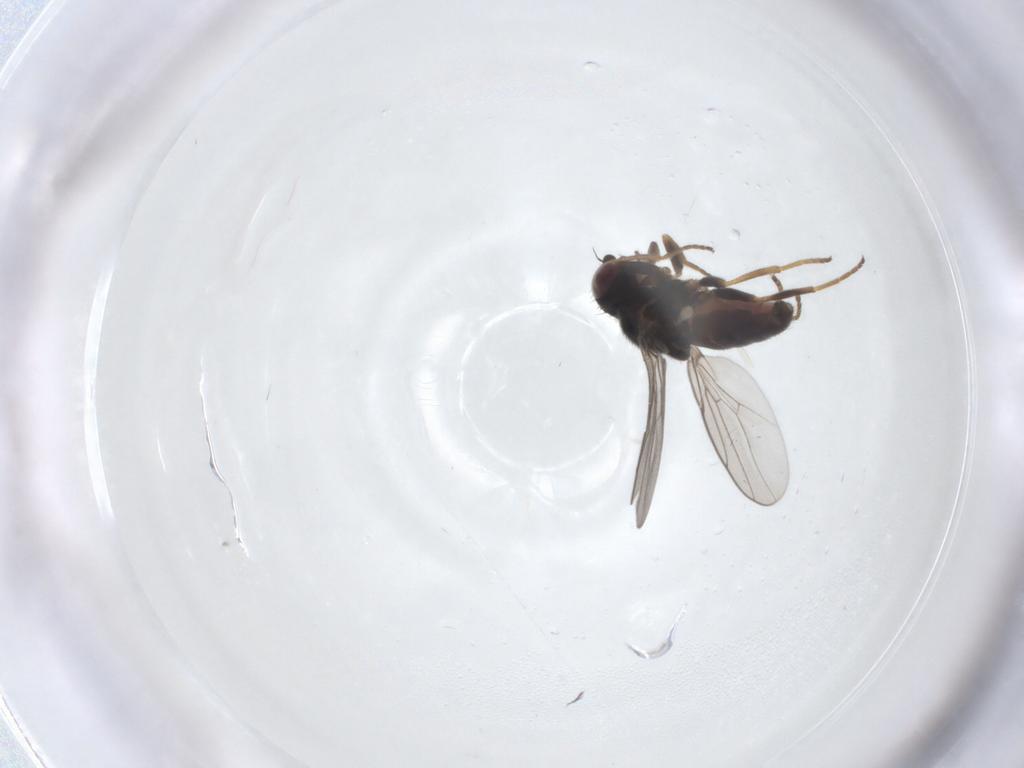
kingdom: Animalia
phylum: Arthropoda
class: Insecta
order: Diptera
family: Chloropidae
